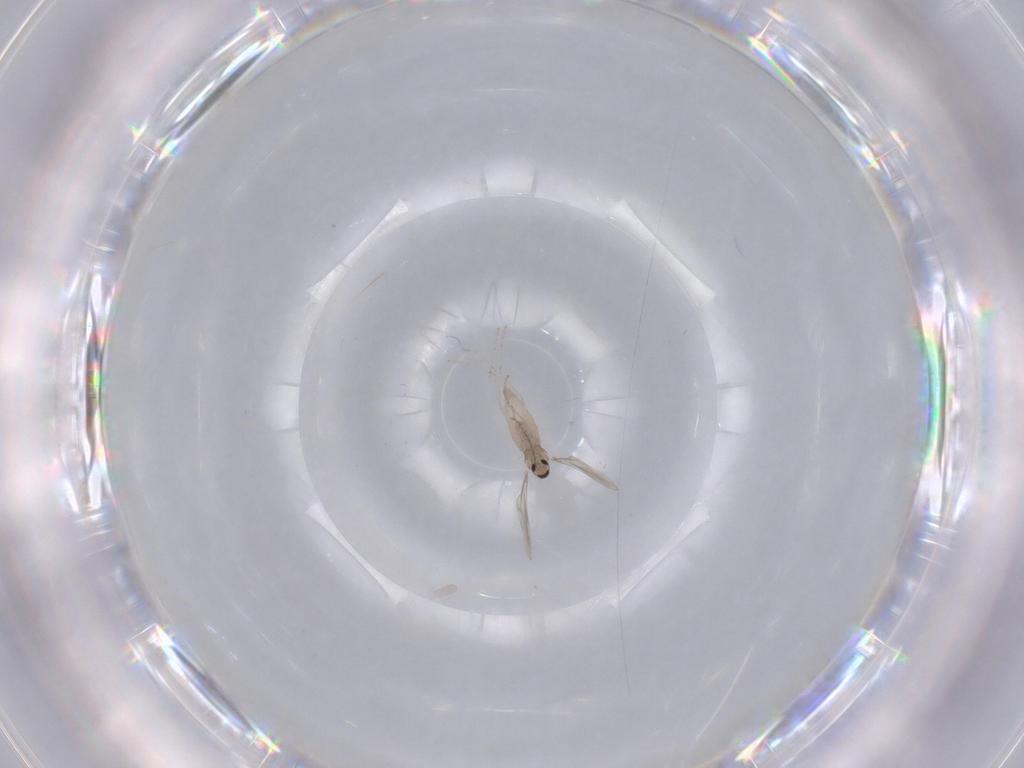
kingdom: Animalia
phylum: Arthropoda
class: Insecta
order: Diptera
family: Cecidomyiidae
